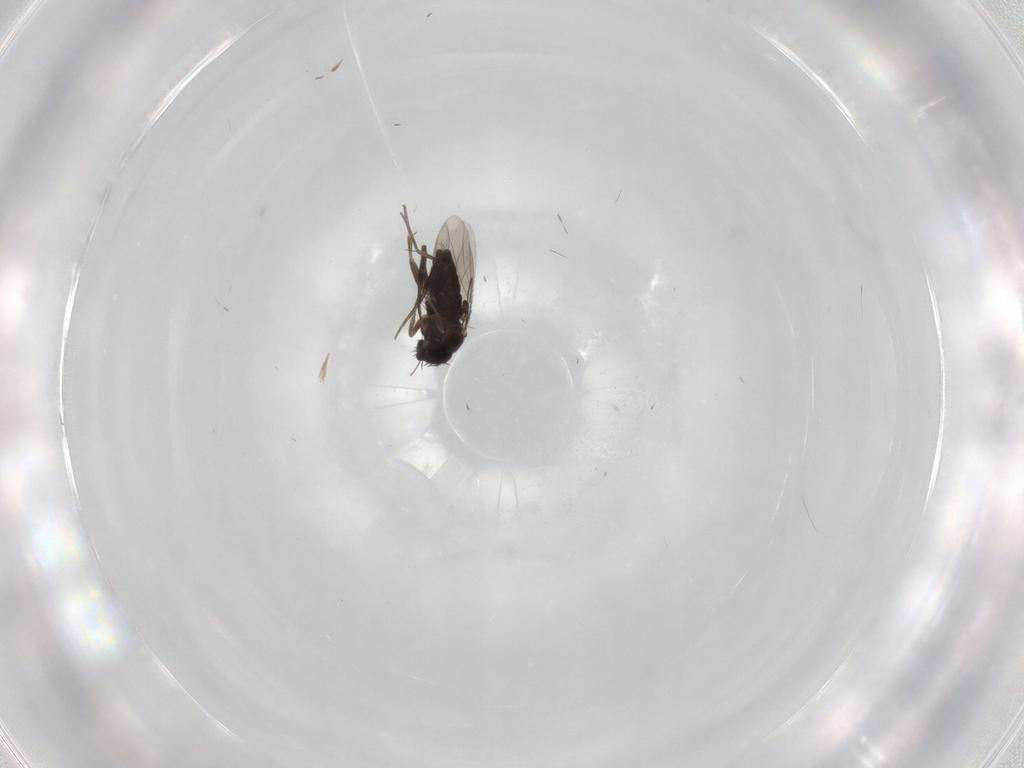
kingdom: Animalia
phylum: Arthropoda
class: Insecta
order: Diptera
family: Phoridae
